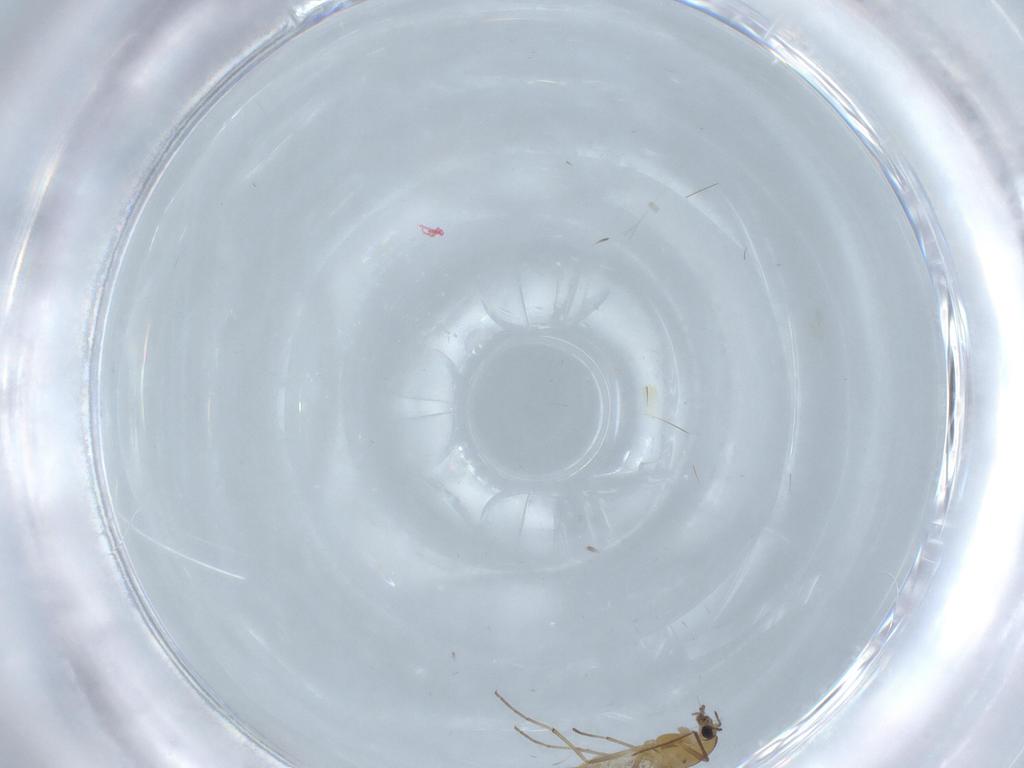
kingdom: Animalia
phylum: Arthropoda
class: Insecta
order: Diptera
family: Chironomidae
